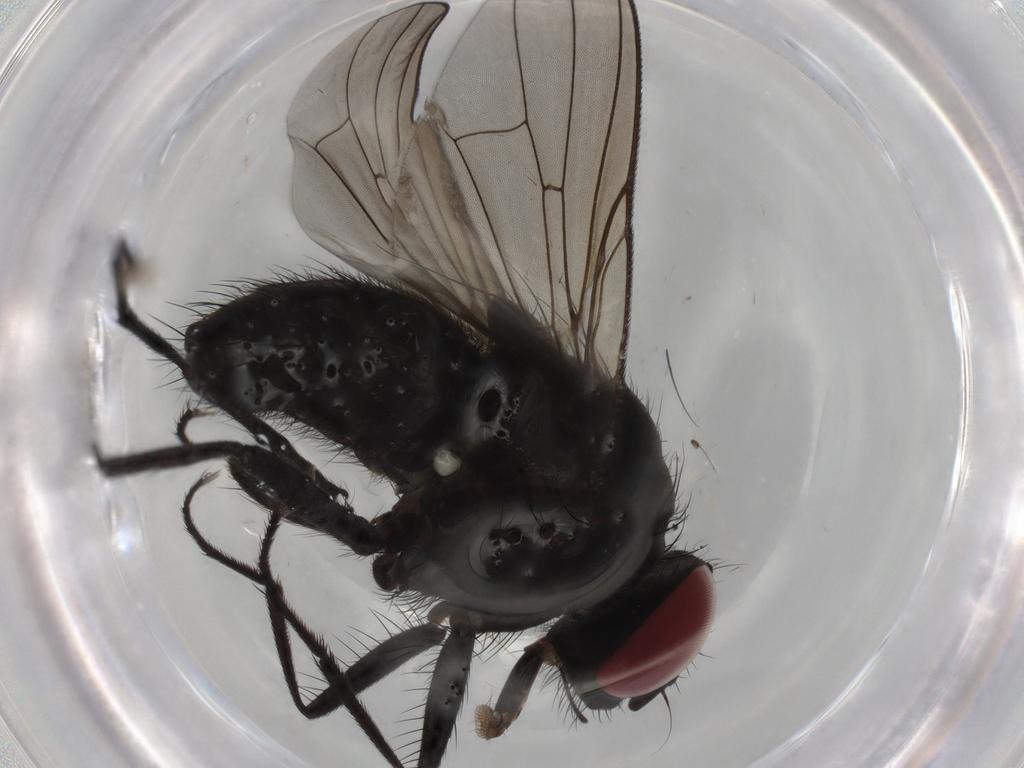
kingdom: Animalia
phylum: Arthropoda
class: Insecta
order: Diptera
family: Muscidae
